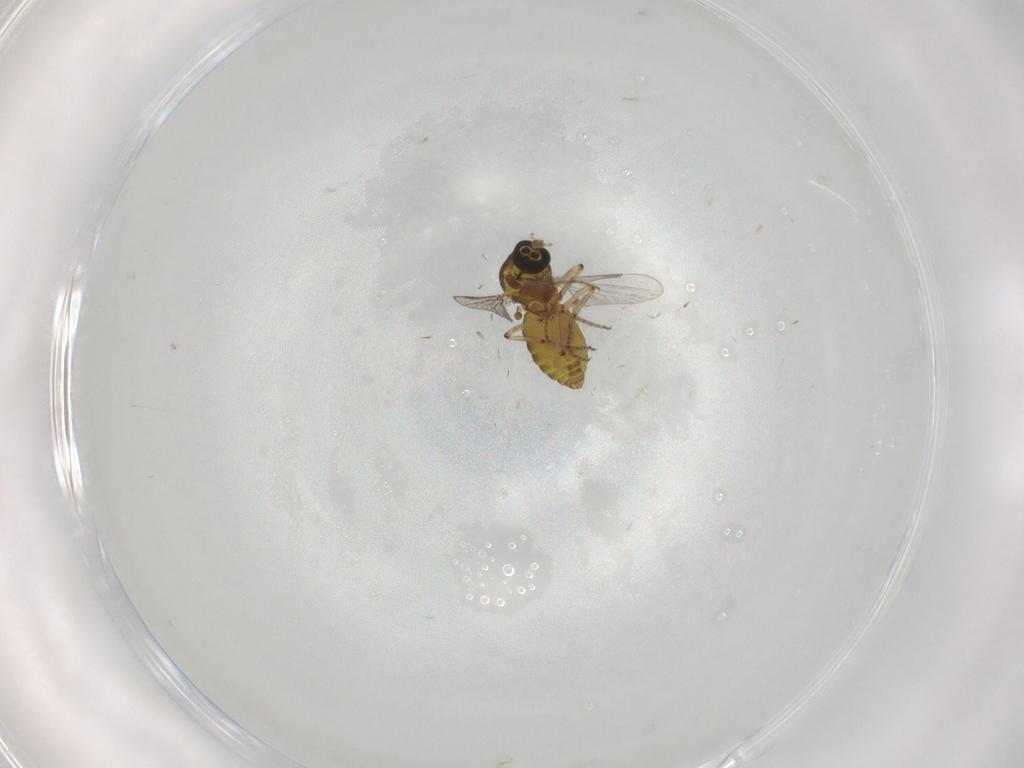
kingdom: Animalia
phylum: Arthropoda
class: Insecta
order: Diptera
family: Ceratopogonidae
